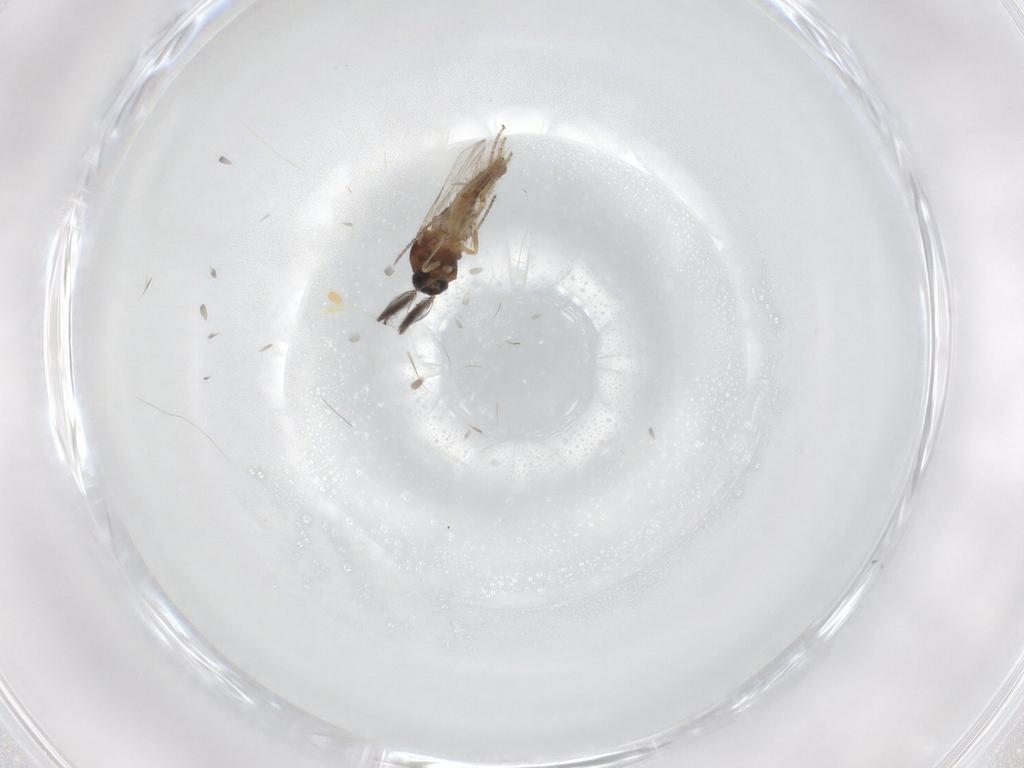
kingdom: Animalia
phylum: Arthropoda
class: Insecta
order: Diptera
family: Ceratopogonidae
